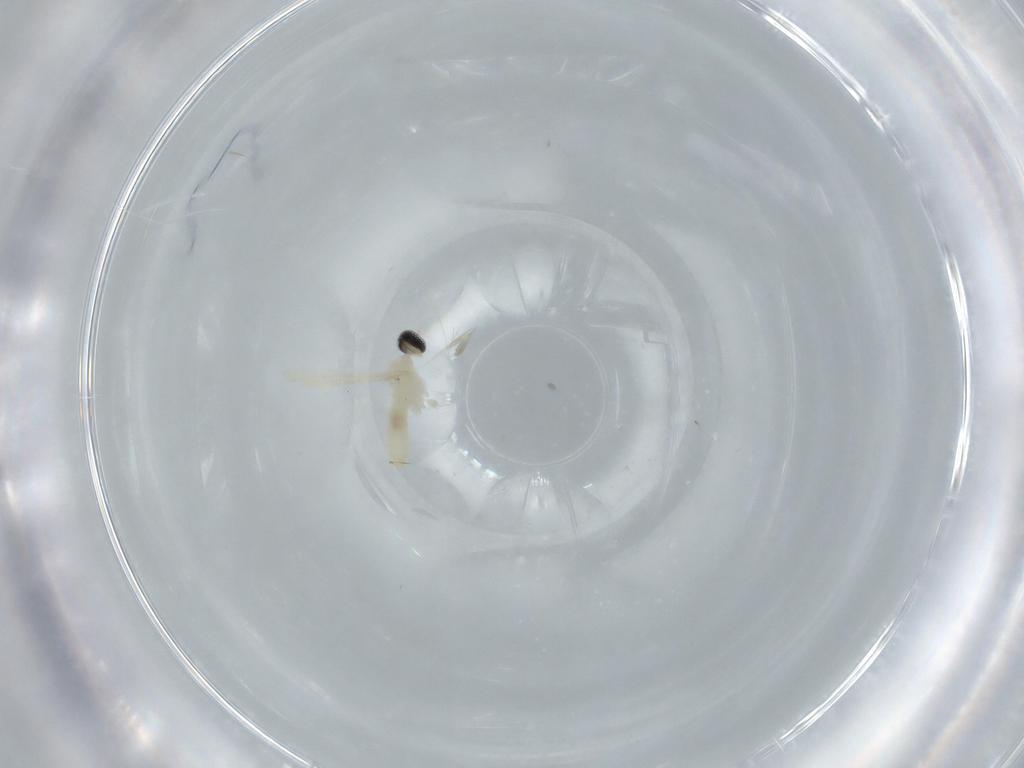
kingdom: Animalia
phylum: Arthropoda
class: Insecta
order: Diptera
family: Cecidomyiidae
